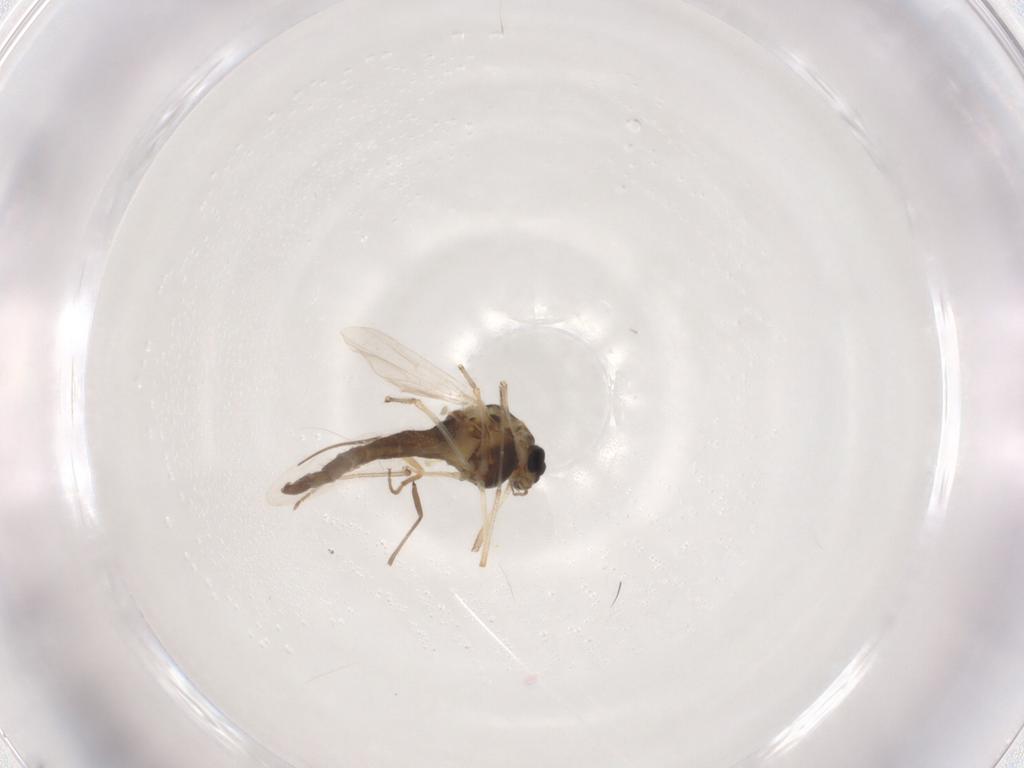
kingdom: Animalia
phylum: Arthropoda
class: Insecta
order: Diptera
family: Chironomidae
